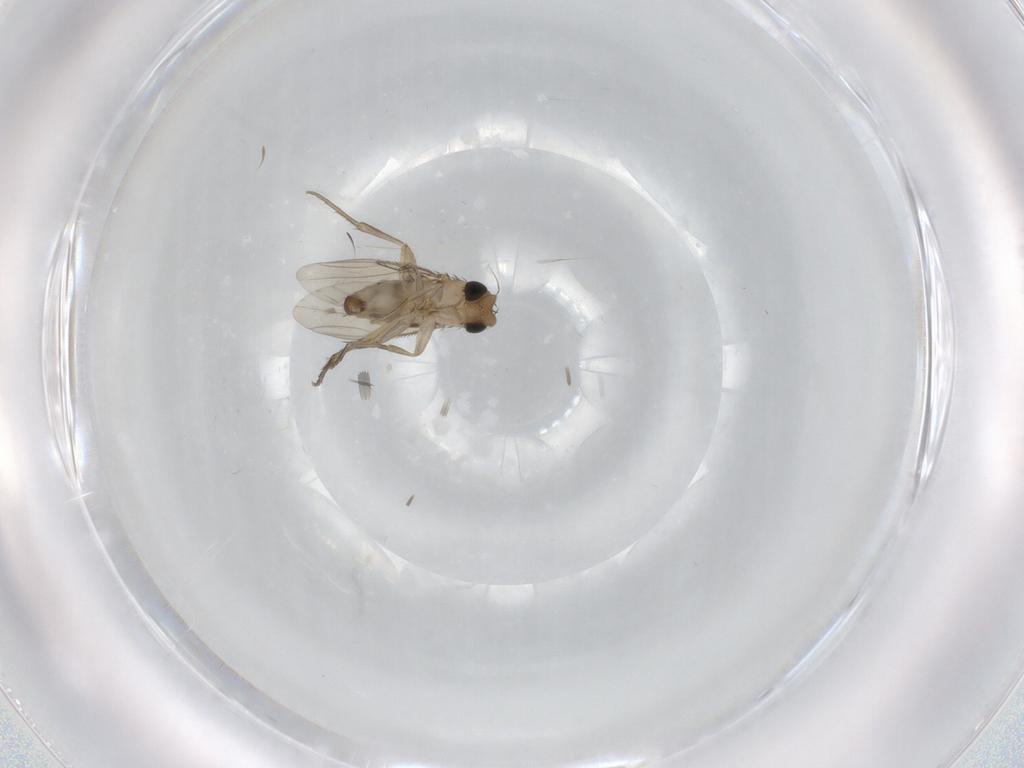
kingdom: Animalia
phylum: Arthropoda
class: Insecta
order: Diptera
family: Phoridae
